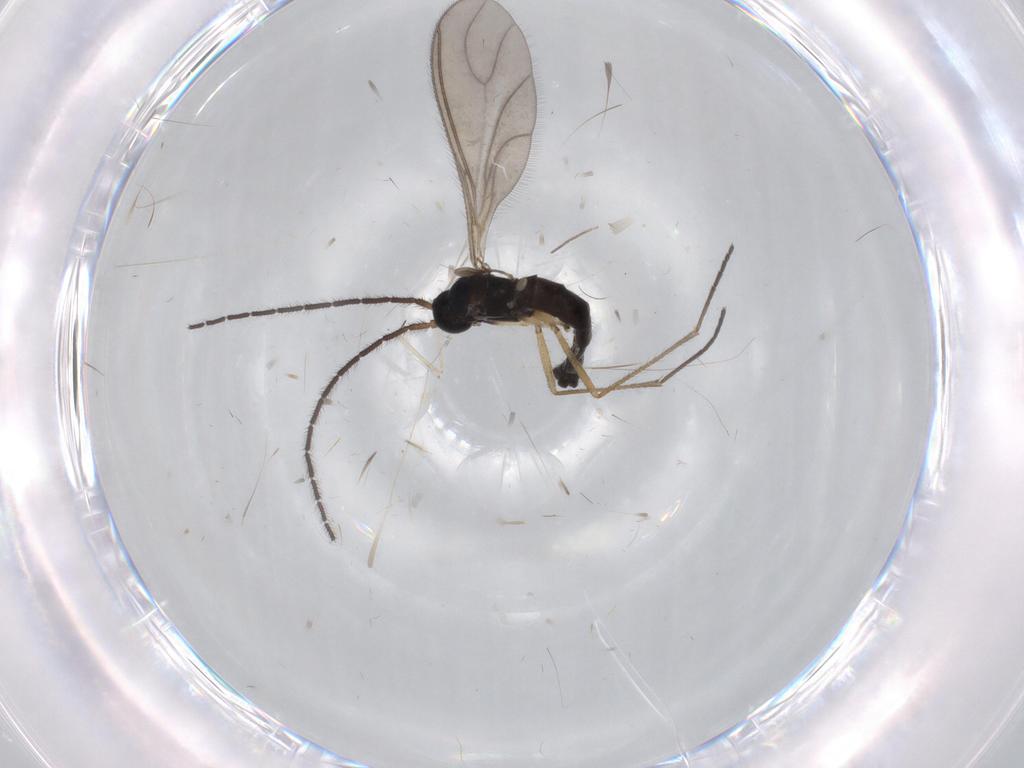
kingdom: Animalia
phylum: Arthropoda
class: Insecta
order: Diptera
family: Sciaridae
